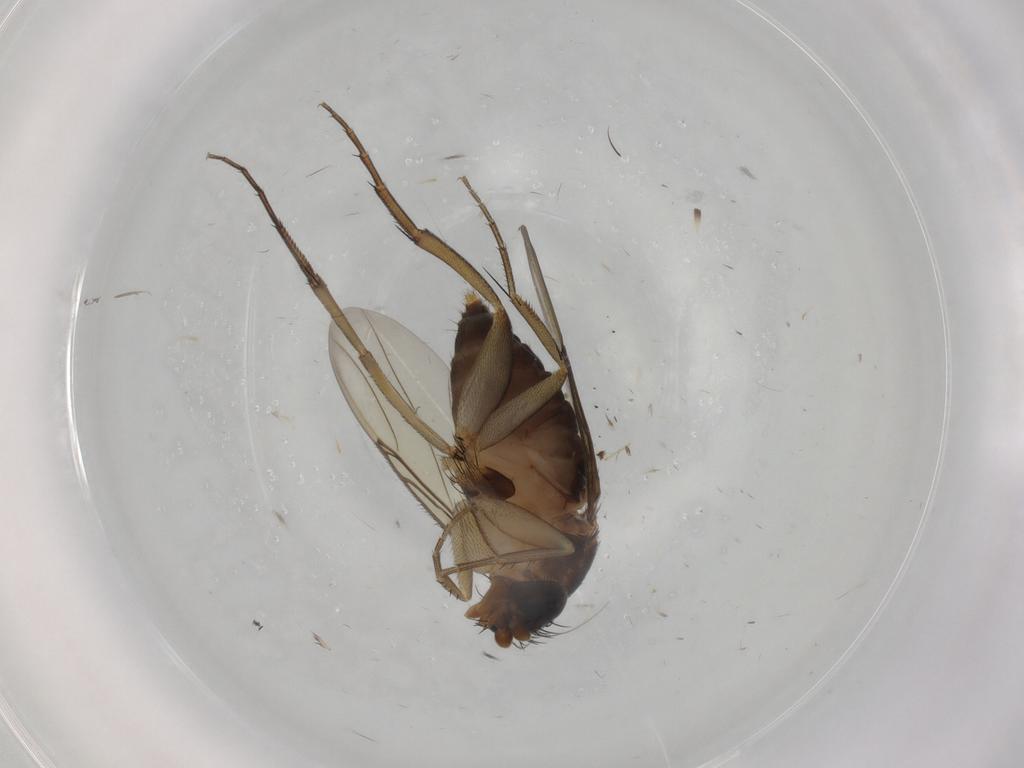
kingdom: Animalia
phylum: Arthropoda
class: Insecta
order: Diptera
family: Phoridae
